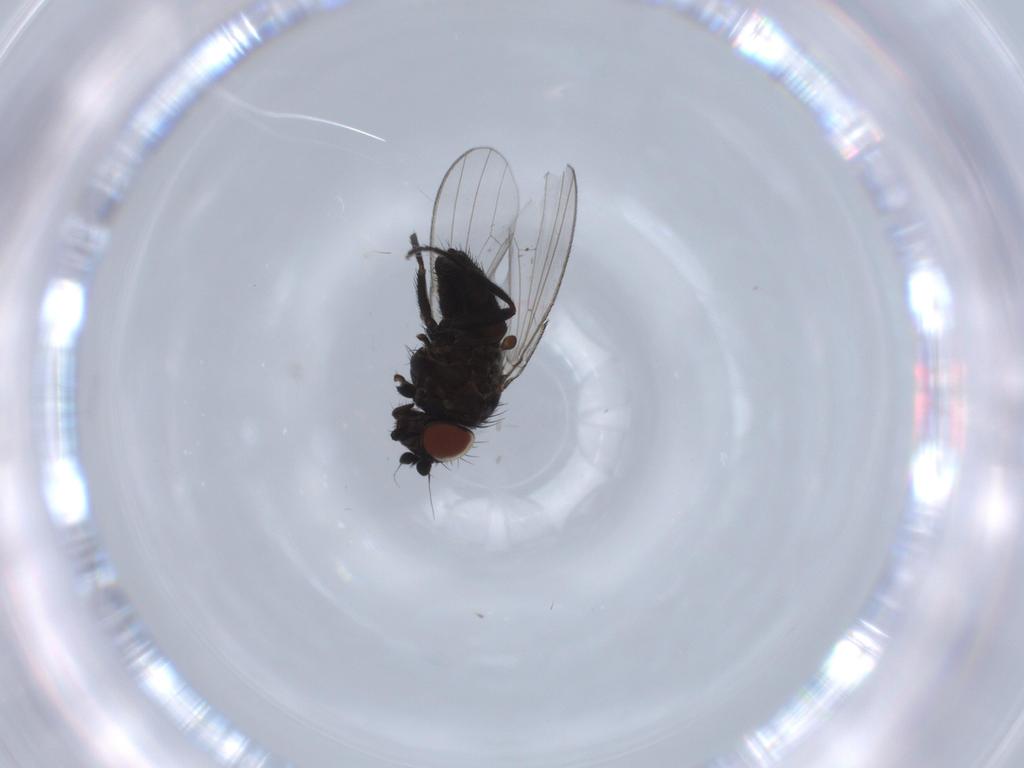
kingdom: Animalia
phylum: Arthropoda
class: Insecta
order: Diptera
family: Milichiidae
